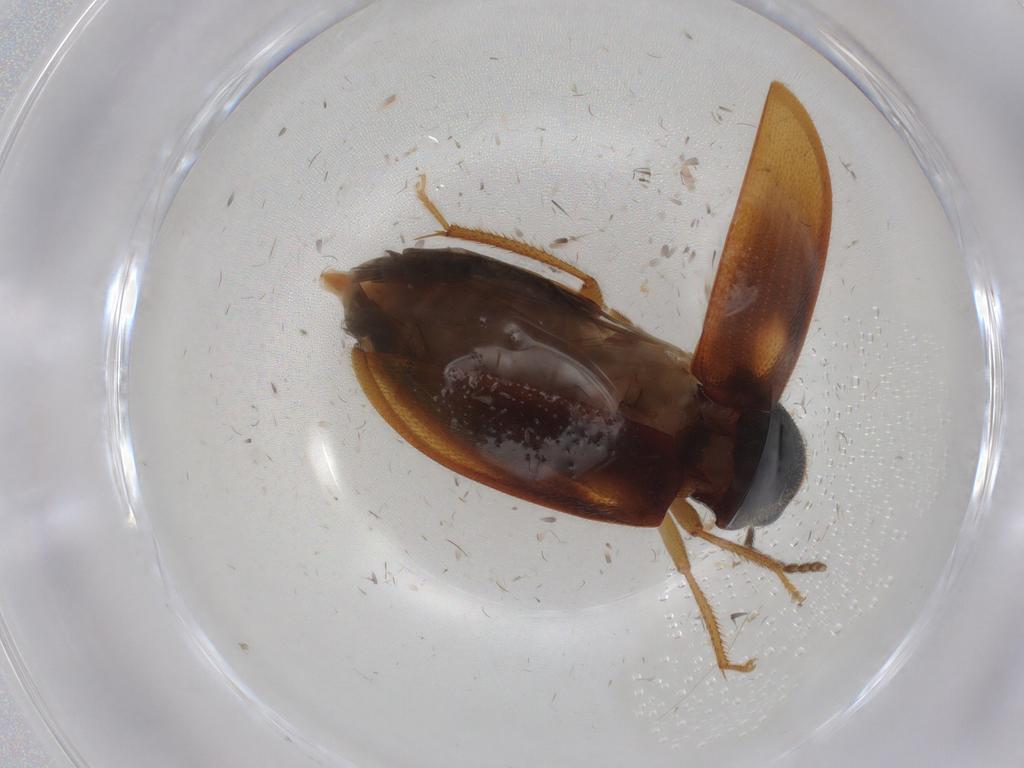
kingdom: Animalia
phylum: Arthropoda
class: Insecta
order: Coleoptera
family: Ptilodactylidae
